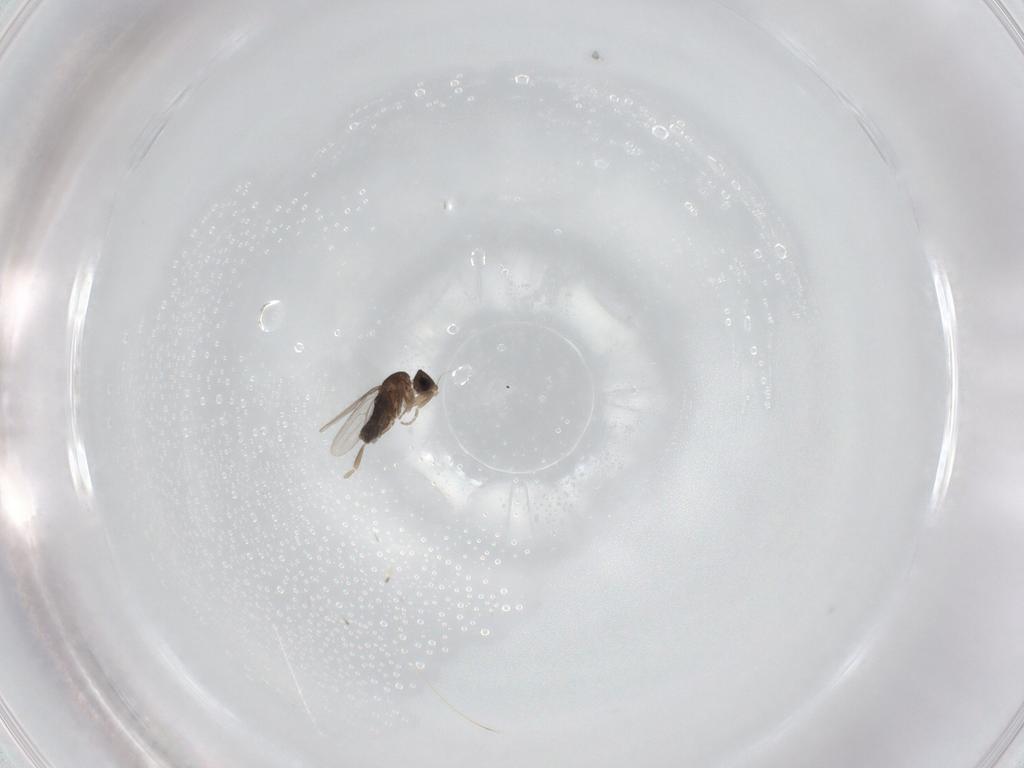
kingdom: Animalia
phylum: Arthropoda
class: Insecta
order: Diptera
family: Phoridae
